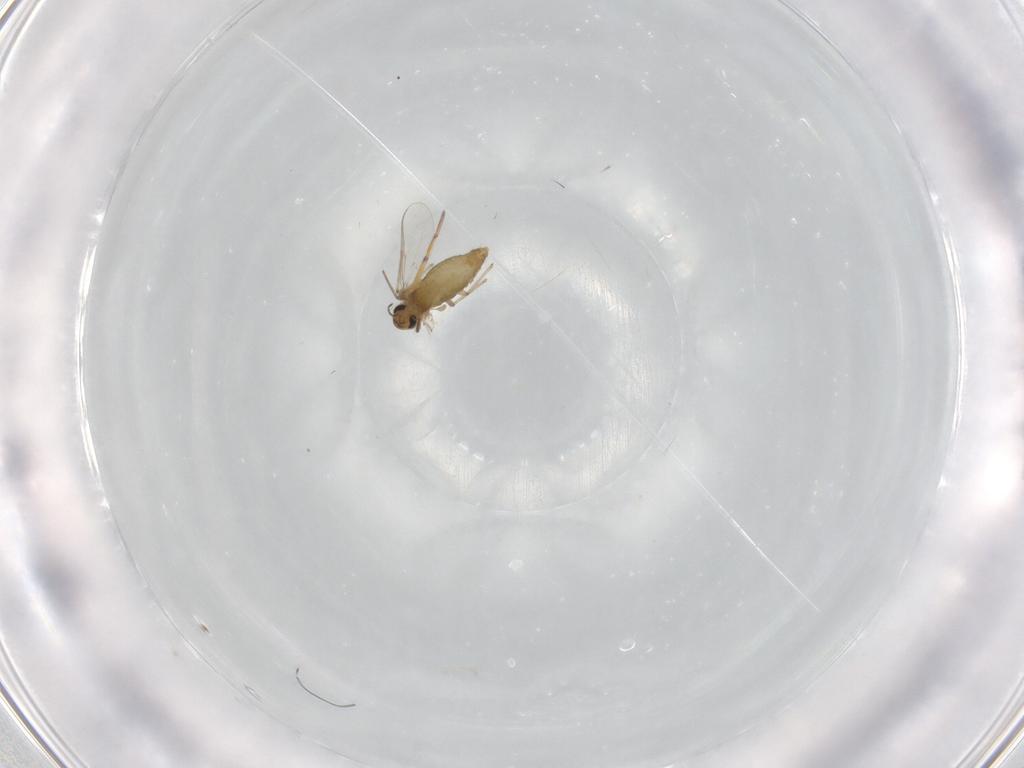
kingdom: Animalia
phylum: Arthropoda
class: Insecta
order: Diptera
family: Chironomidae
